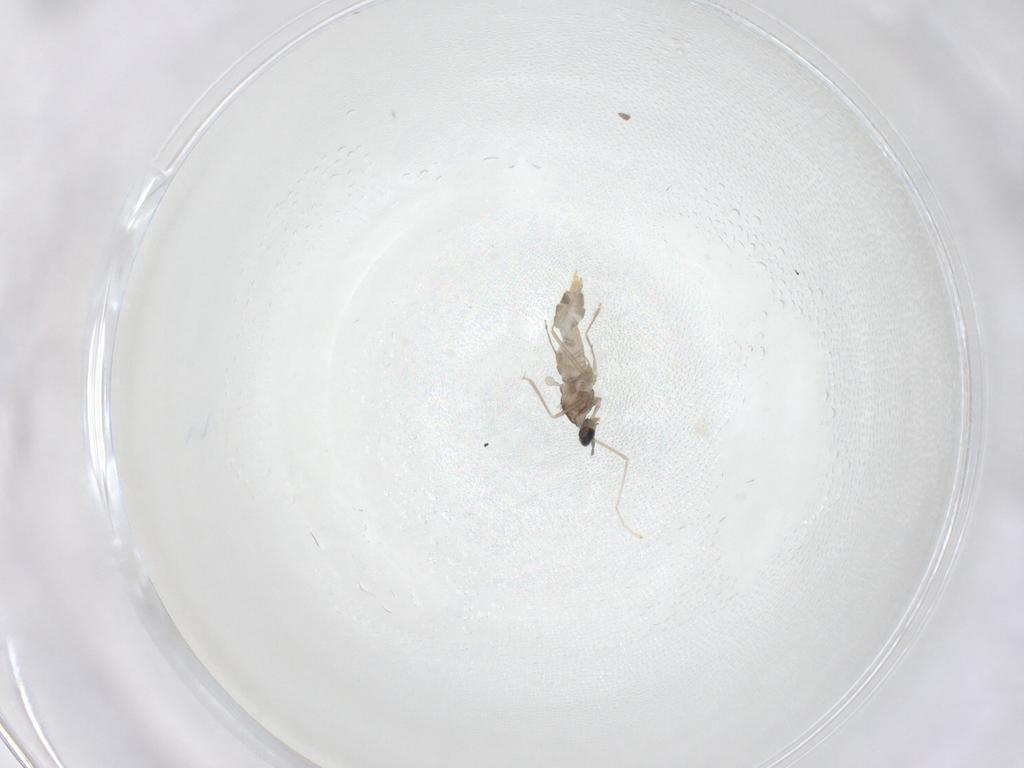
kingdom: Animalia
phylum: Arthropoda
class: Insecta
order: Diptera
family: Cecidomyiidae
